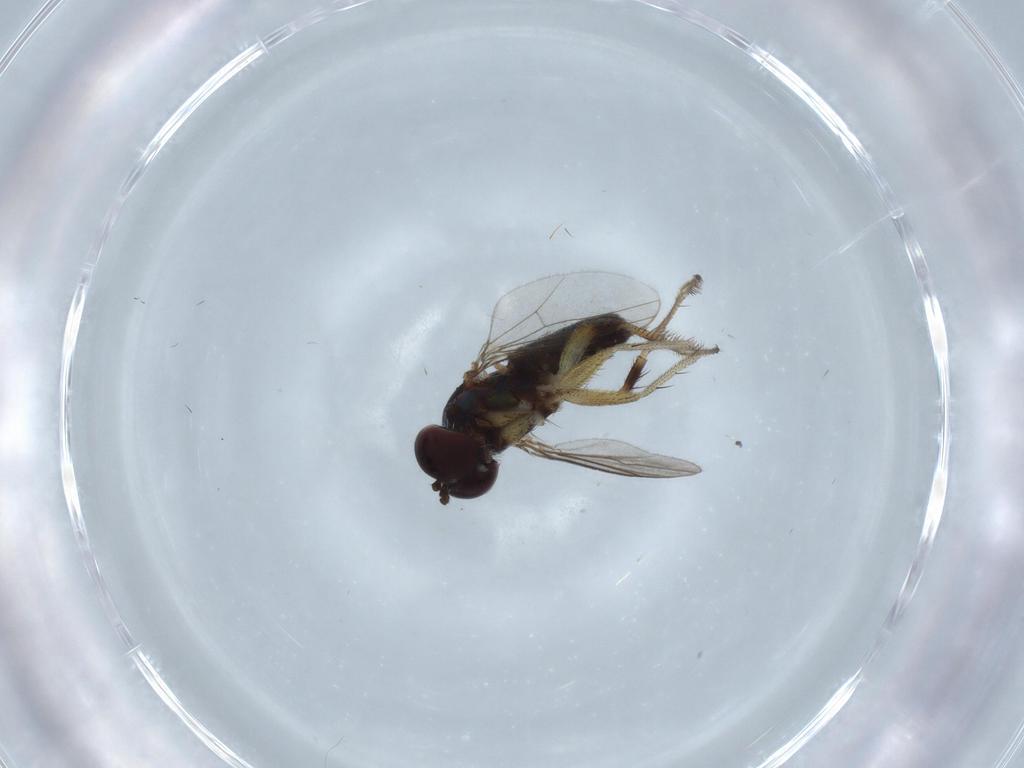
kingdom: Animalia
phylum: Arthropoda
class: Insecta
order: Diptera
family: Cecidomyiidae
